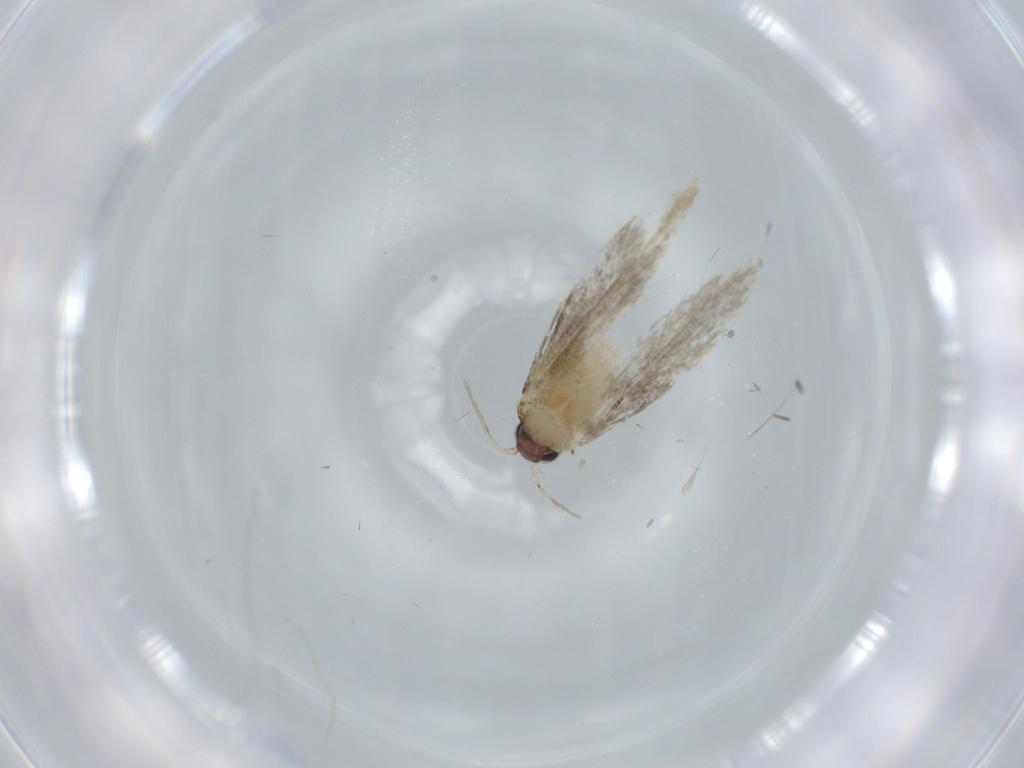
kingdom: Animalia
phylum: Arthropoda
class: Insecta
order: Lepidoptera
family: Tineidae
